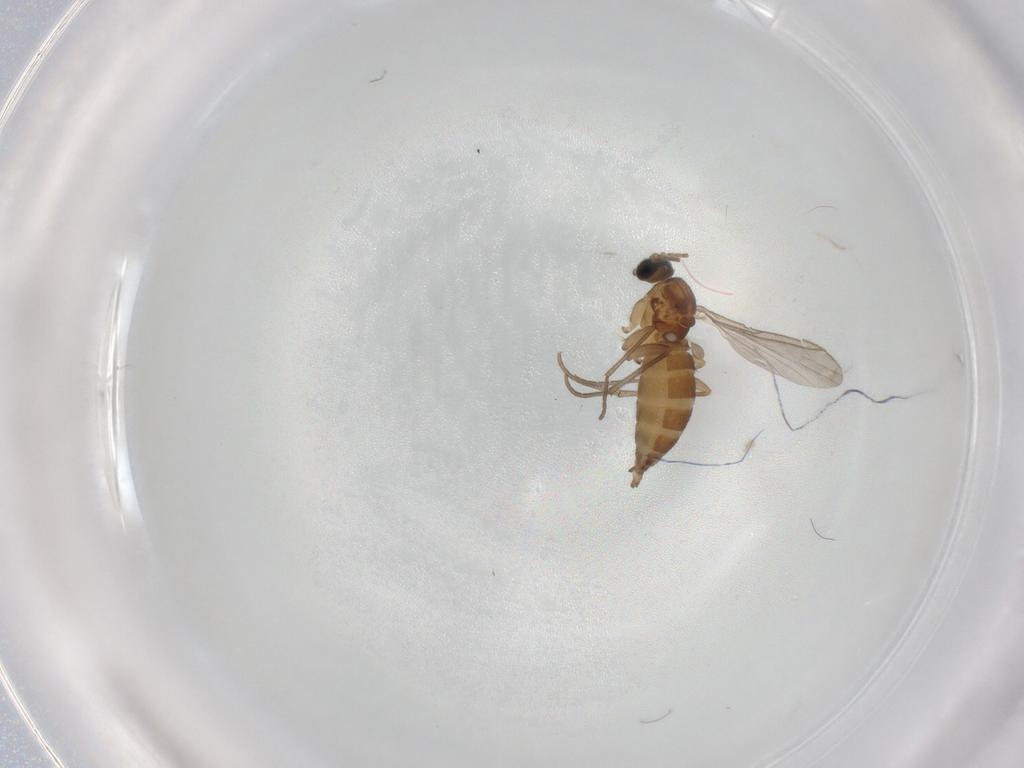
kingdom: Animalia
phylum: Arthropoda
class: Insecta
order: Diptera
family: Sciaridae
